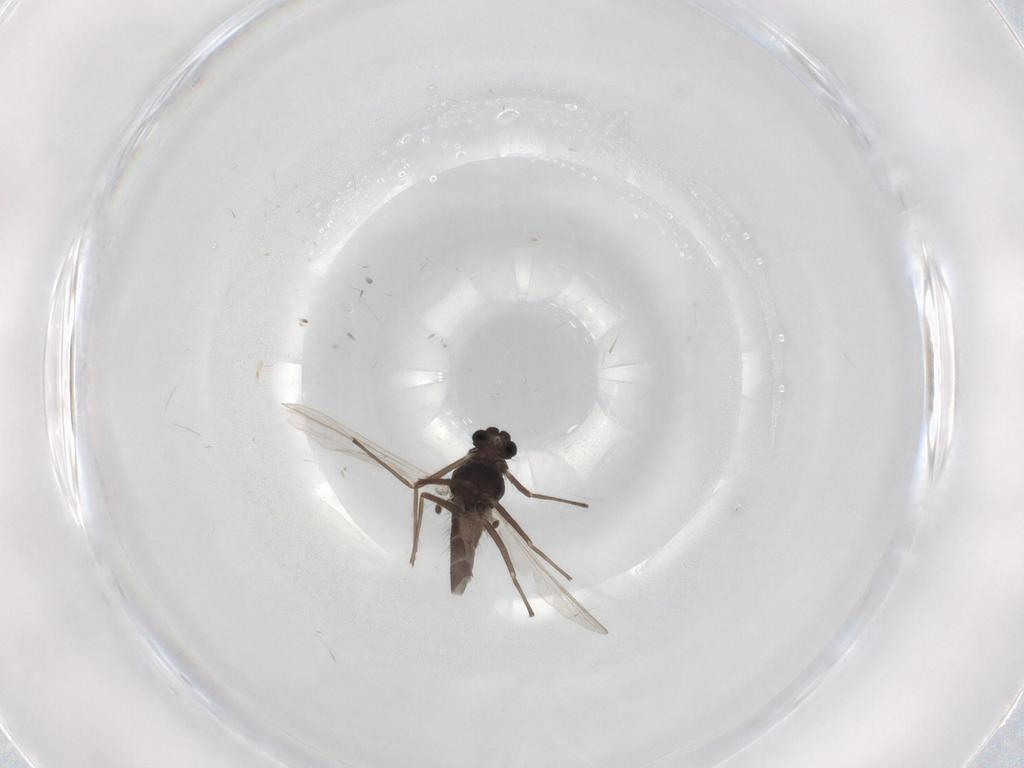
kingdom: Animalia
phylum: Arthropoda
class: Insecta
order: Diptera
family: Chironomidae
